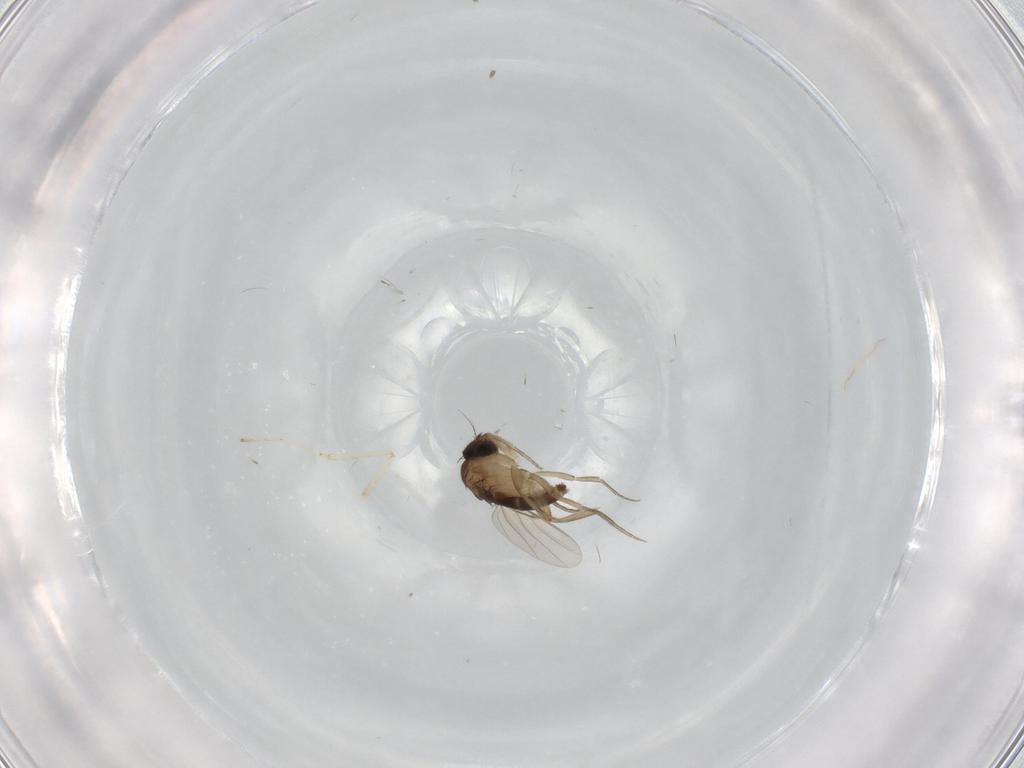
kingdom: Animalia
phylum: Arthropoda
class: Insecta
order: Diptera
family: Phoridae
